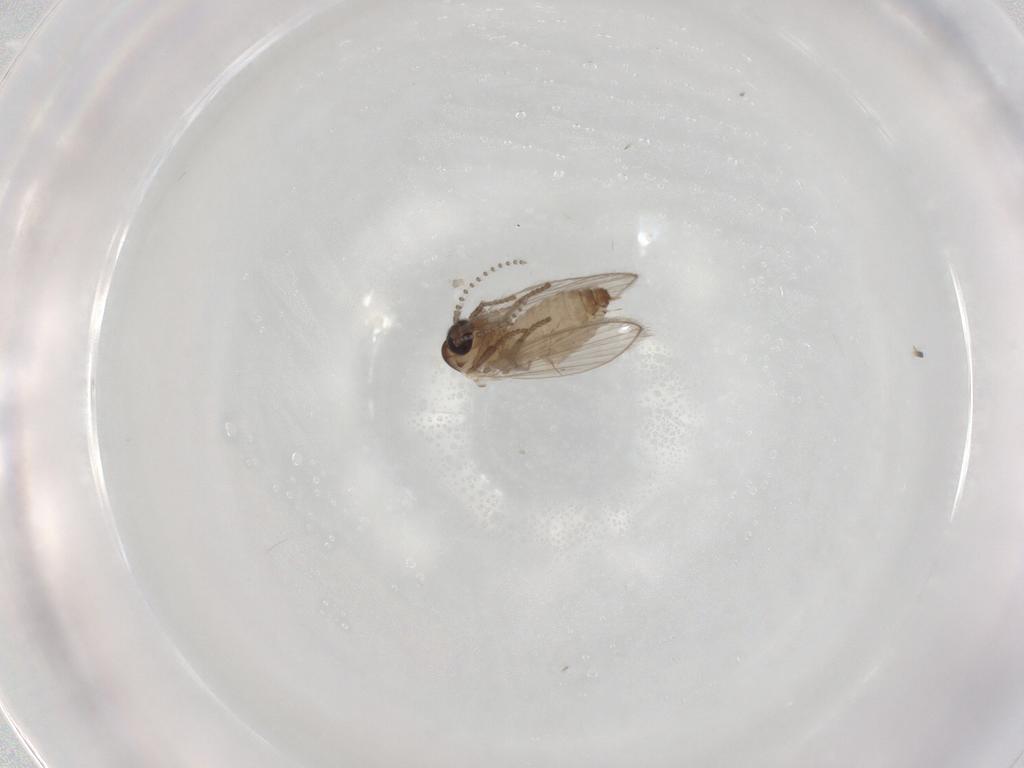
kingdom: Animalia
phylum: Arthropoda
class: Insecta
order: Diptera
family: Psychodidae
